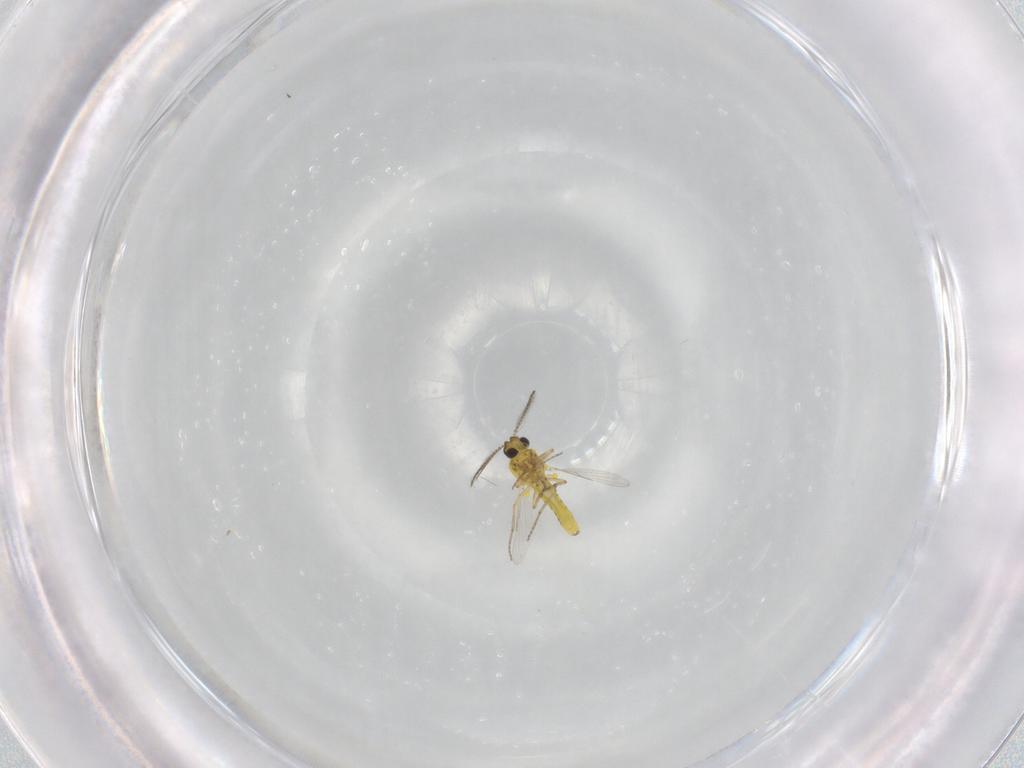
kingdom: Animalia
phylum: Arthropoda
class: Insecta
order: Diptera
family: Ceratopogonidae
